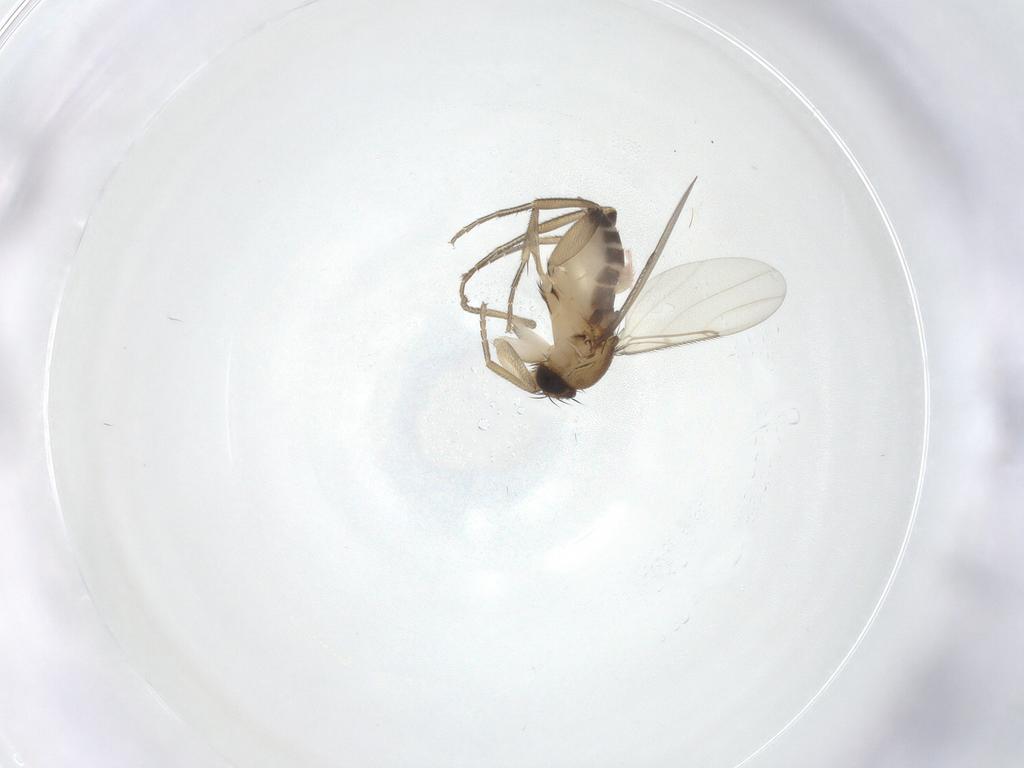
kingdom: Animalia
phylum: Arthropoda
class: Insecta
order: Diptera
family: Phoridae
